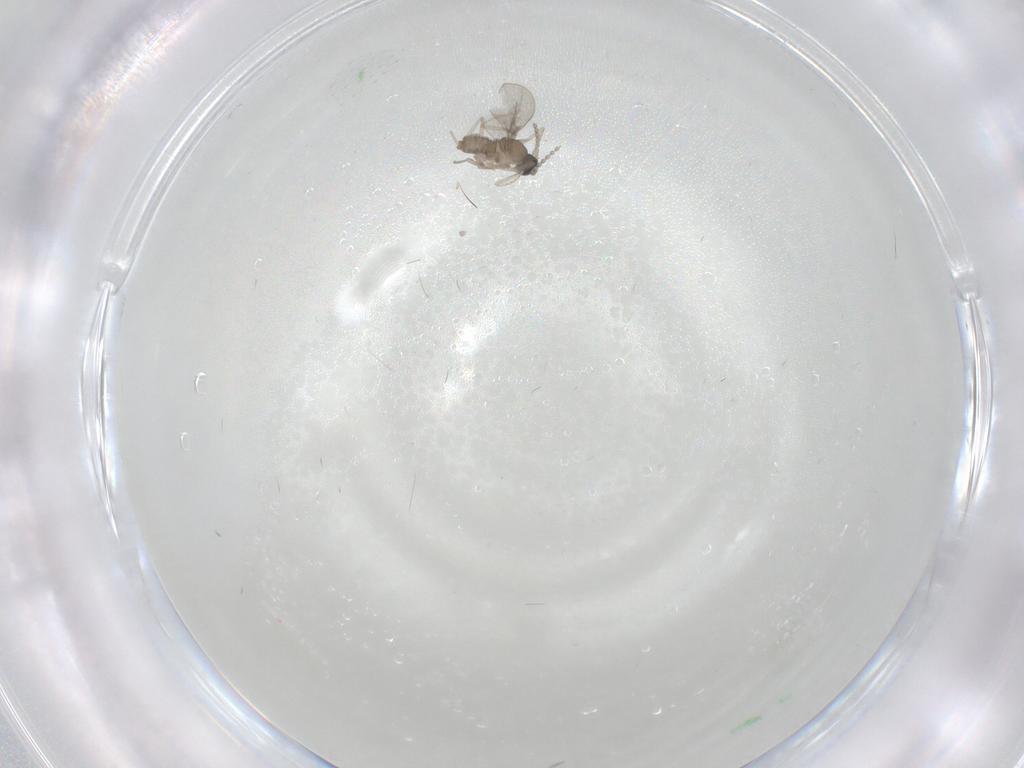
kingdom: Animalia
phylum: Arthropoda
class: Insecta
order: Diptera
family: Cecidomyiidae
